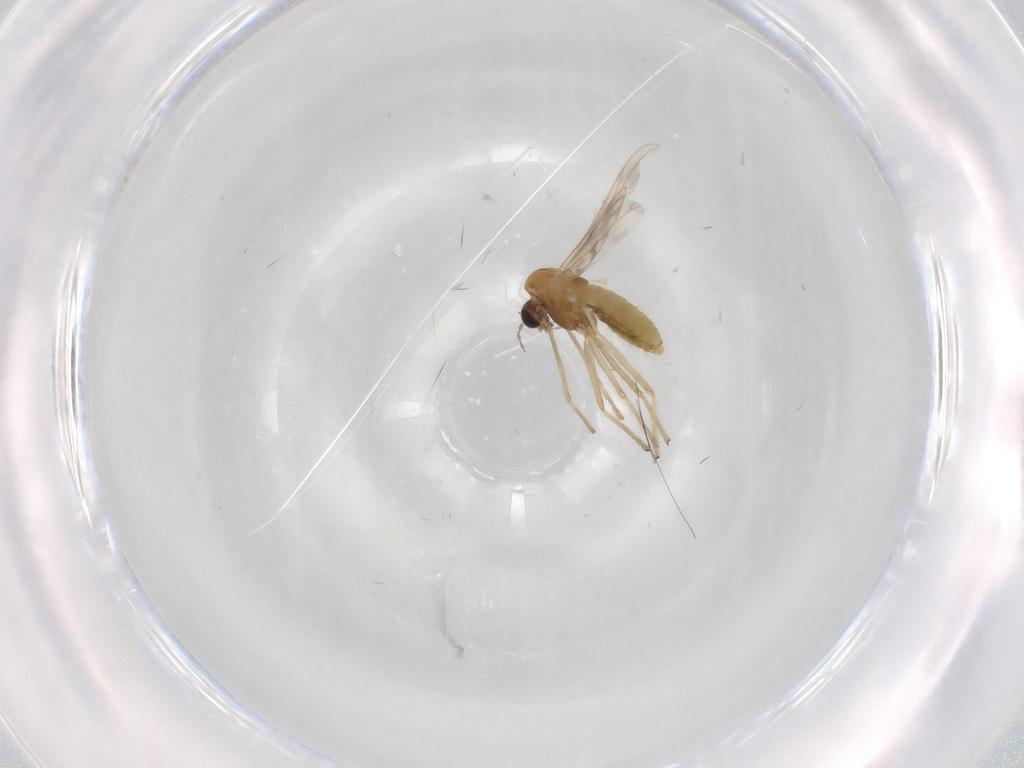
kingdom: Animalia
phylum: Arthropoda
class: Insecta
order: Diptera
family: Chironomidae
